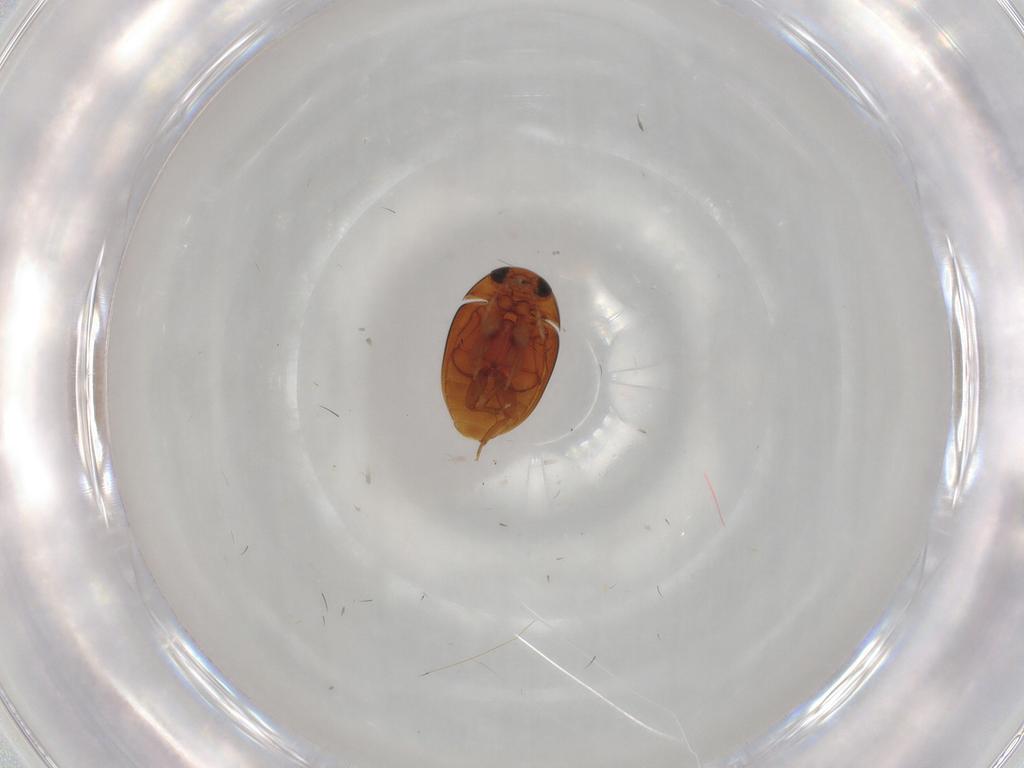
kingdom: Animalia
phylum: Arthropoda
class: Insecta
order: Coleoptera
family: Phalacridae
